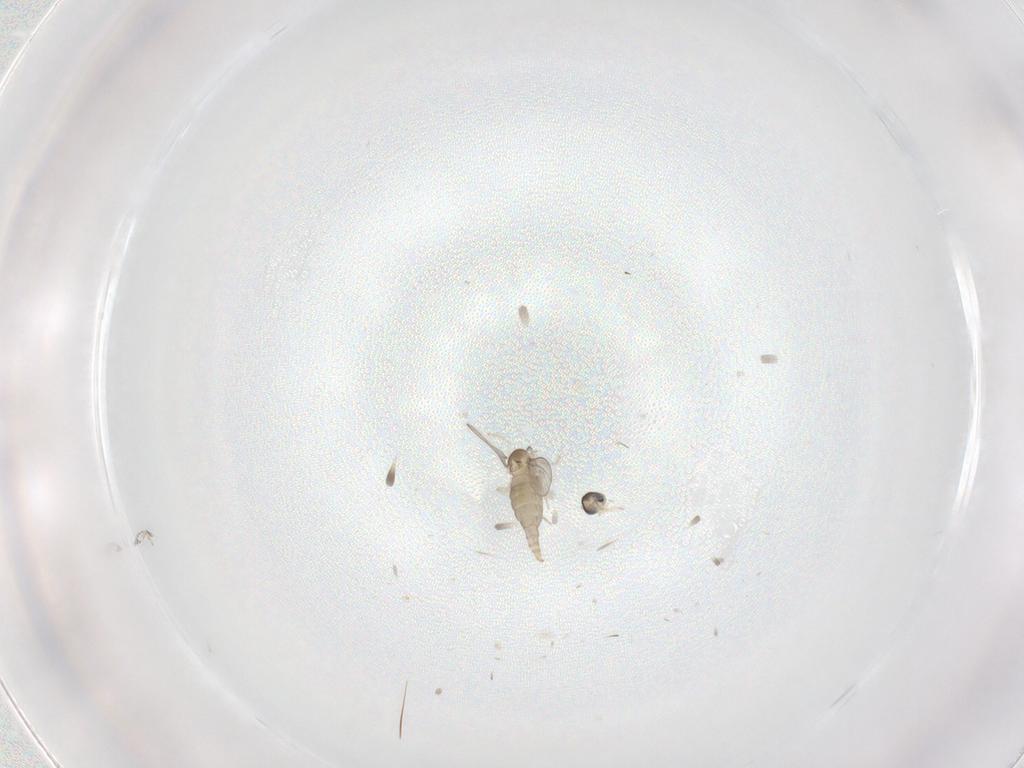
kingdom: Animalia
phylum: Arthropoda
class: Insecta
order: Diptera
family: Cecidomyiidae
